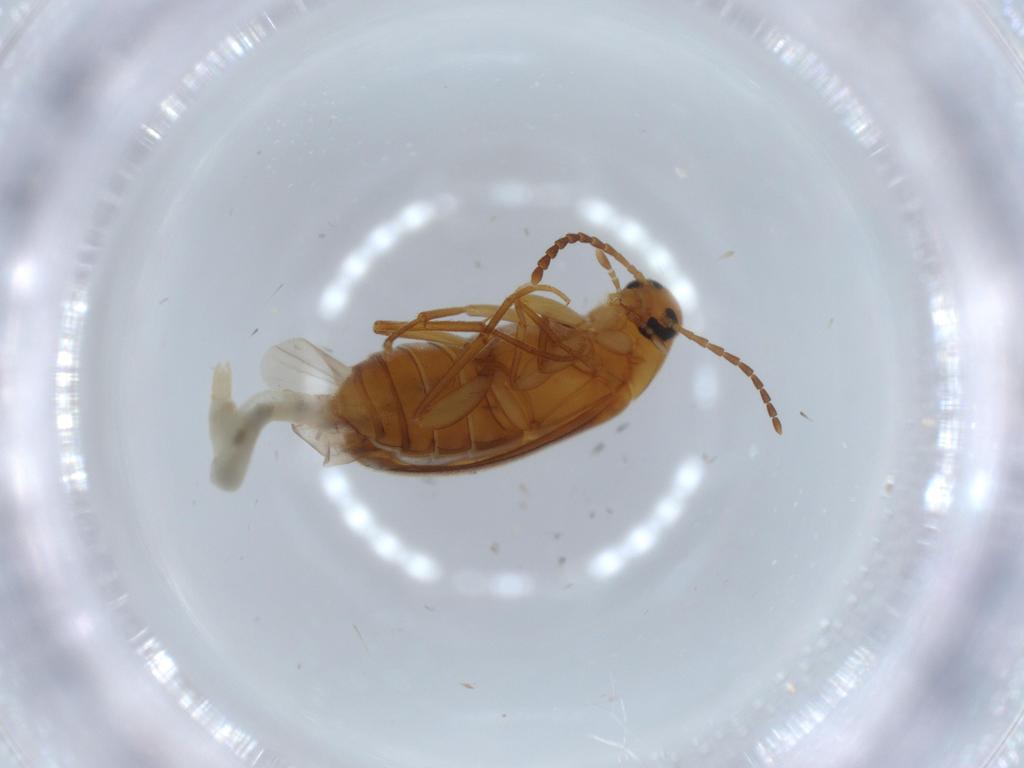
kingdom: Animalia
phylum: Arthropoda
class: Insecta
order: Coleoptera
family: Scraptiidae
